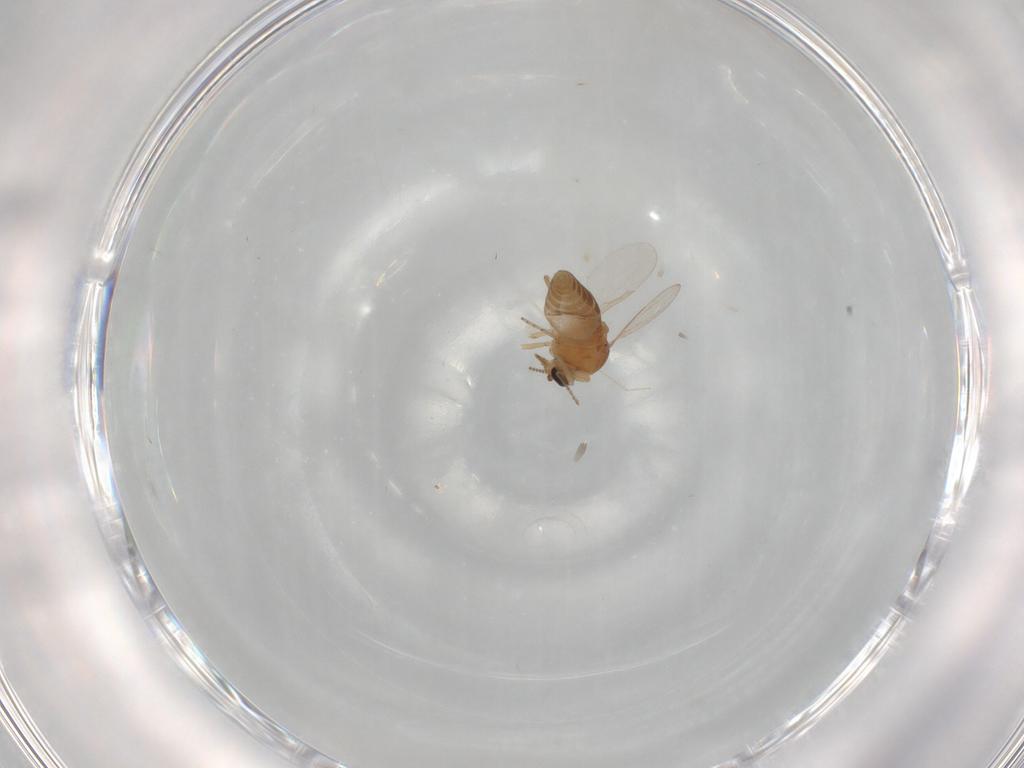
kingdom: Animalia
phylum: Arthropoda
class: Insecta
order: Diptera
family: Ceratopogonidae
